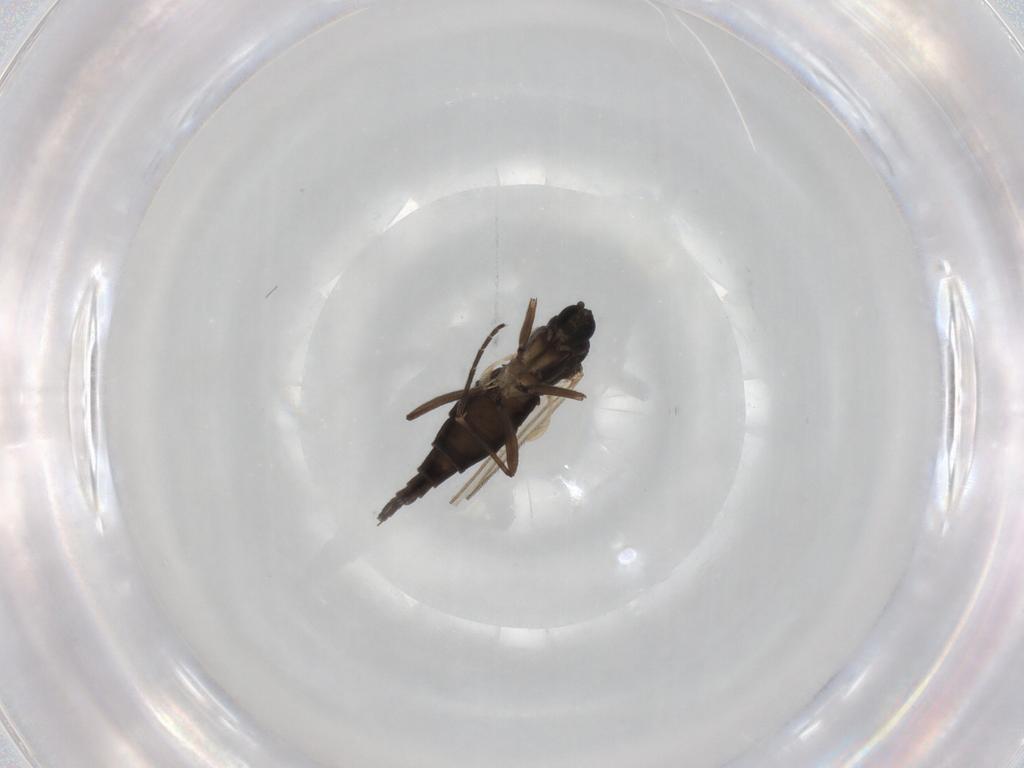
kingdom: Animalia
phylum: Arthropoda
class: Insecta
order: Diptera
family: Sciaridae
